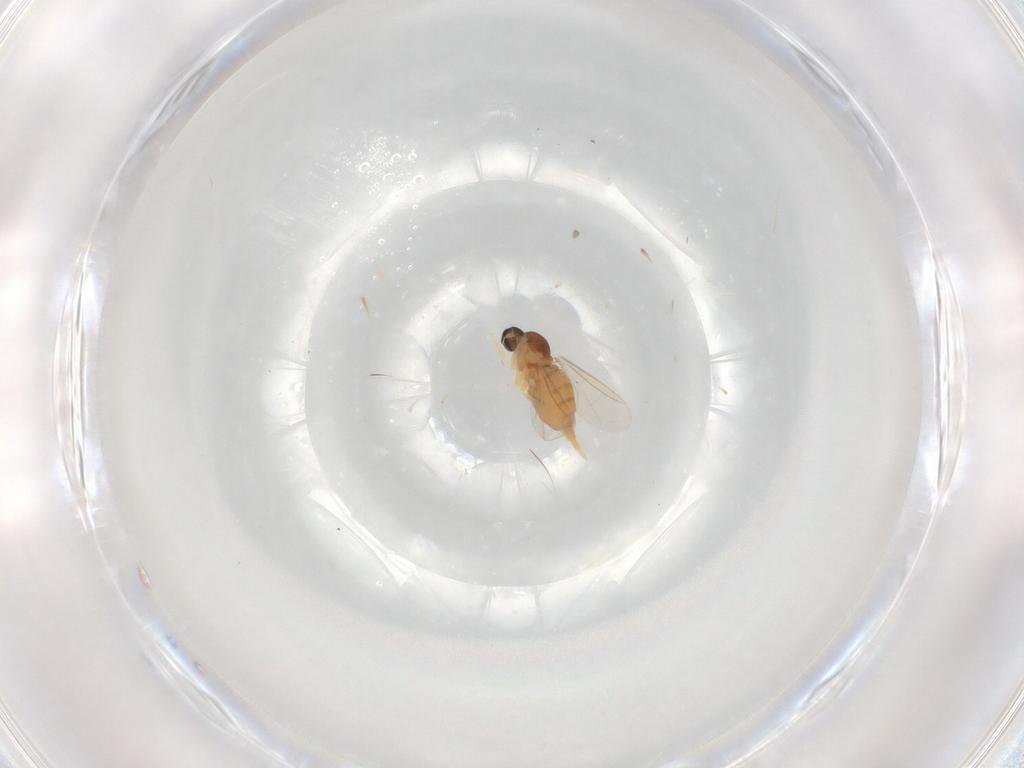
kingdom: Animalia
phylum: Arthropoda
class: Insecta
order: Diptera
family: Cecidomyiidae
